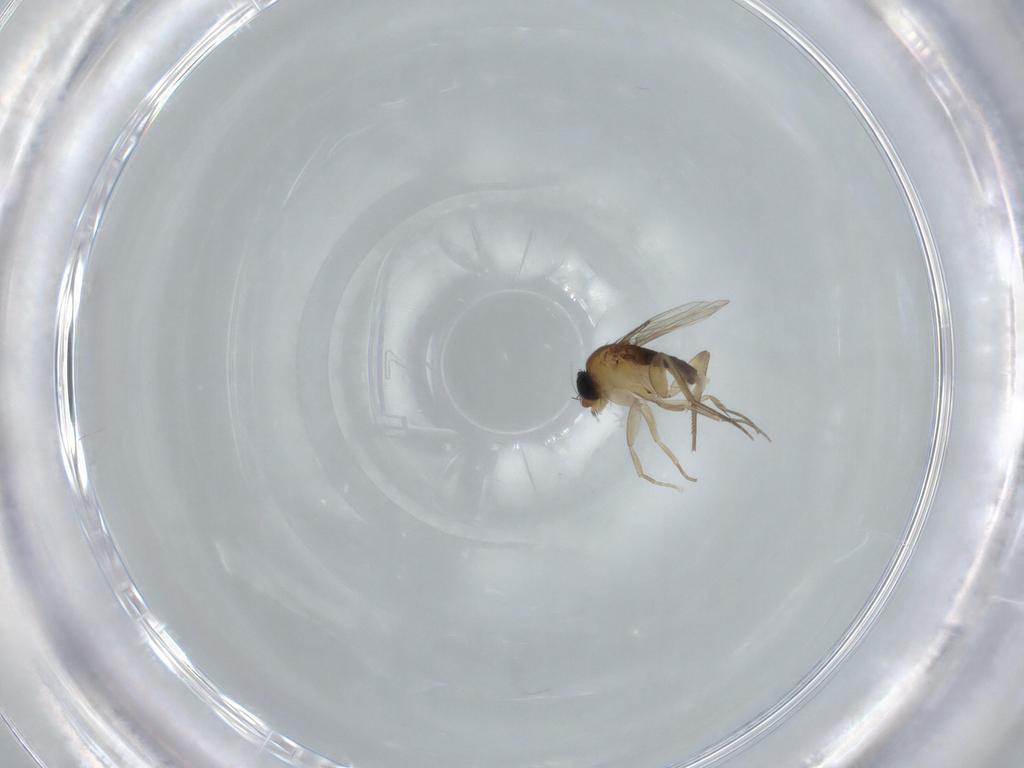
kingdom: Animalia
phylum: Arthropoda
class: Insecta
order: Diptera
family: Phoridae
